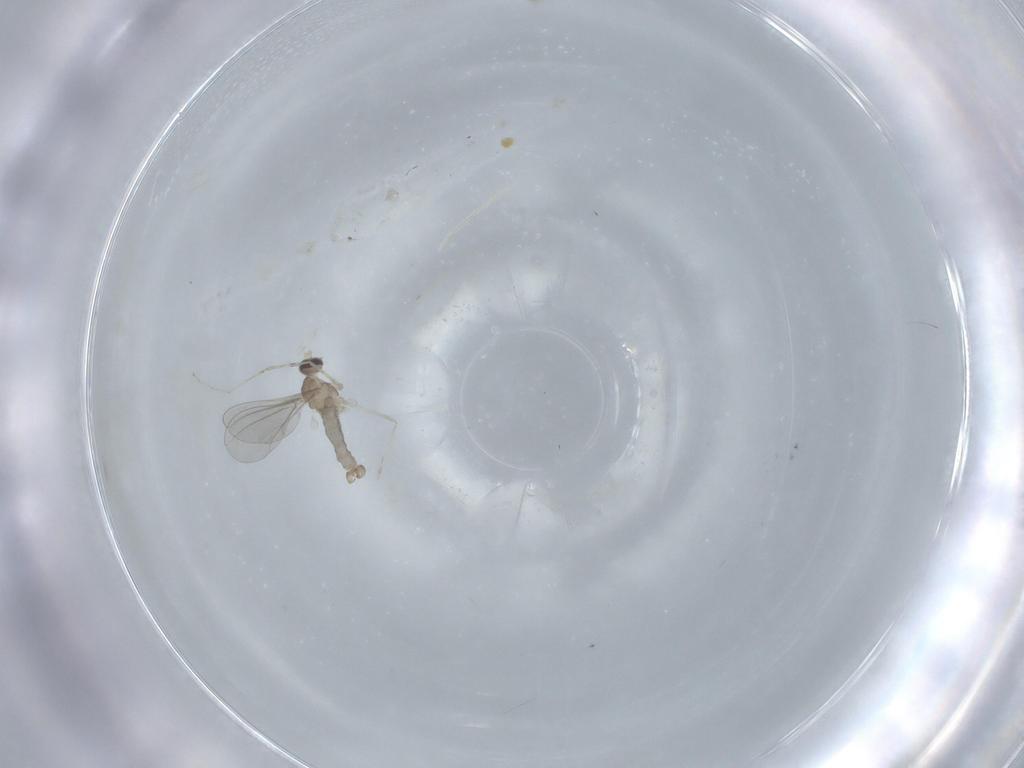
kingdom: Animalia
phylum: Arthropoda
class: Insecta
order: Diptera
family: Cecidomyiidae
